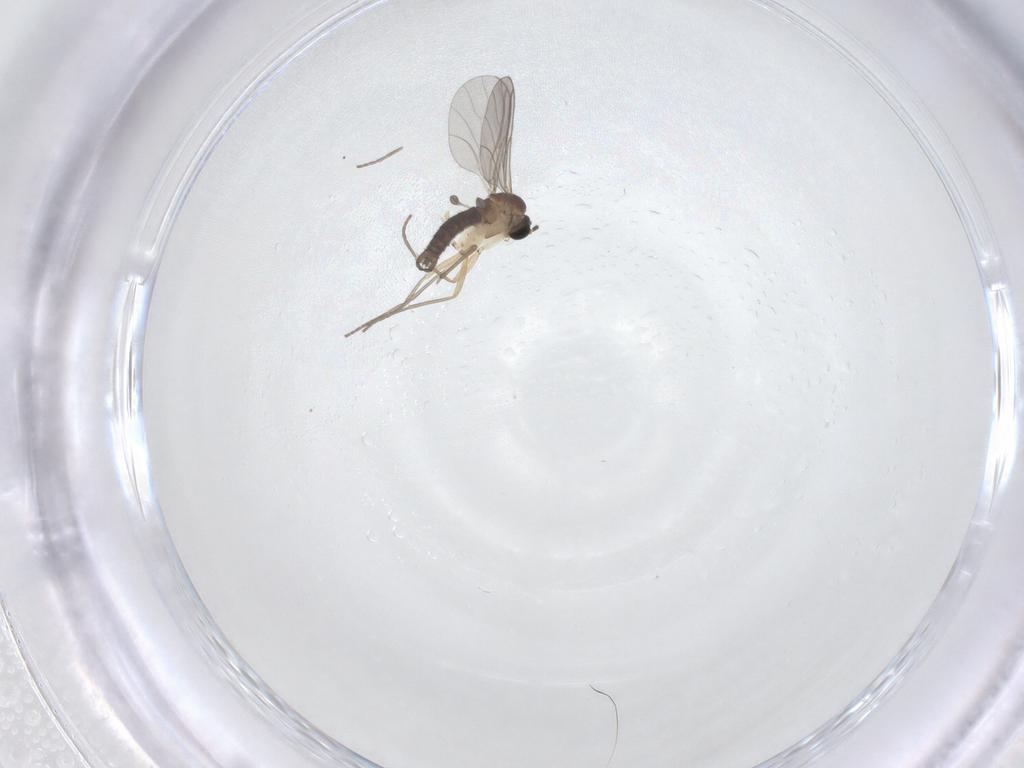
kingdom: Animalia
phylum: Arthropoda
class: Insecta
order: Diptera
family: Sciaridae
